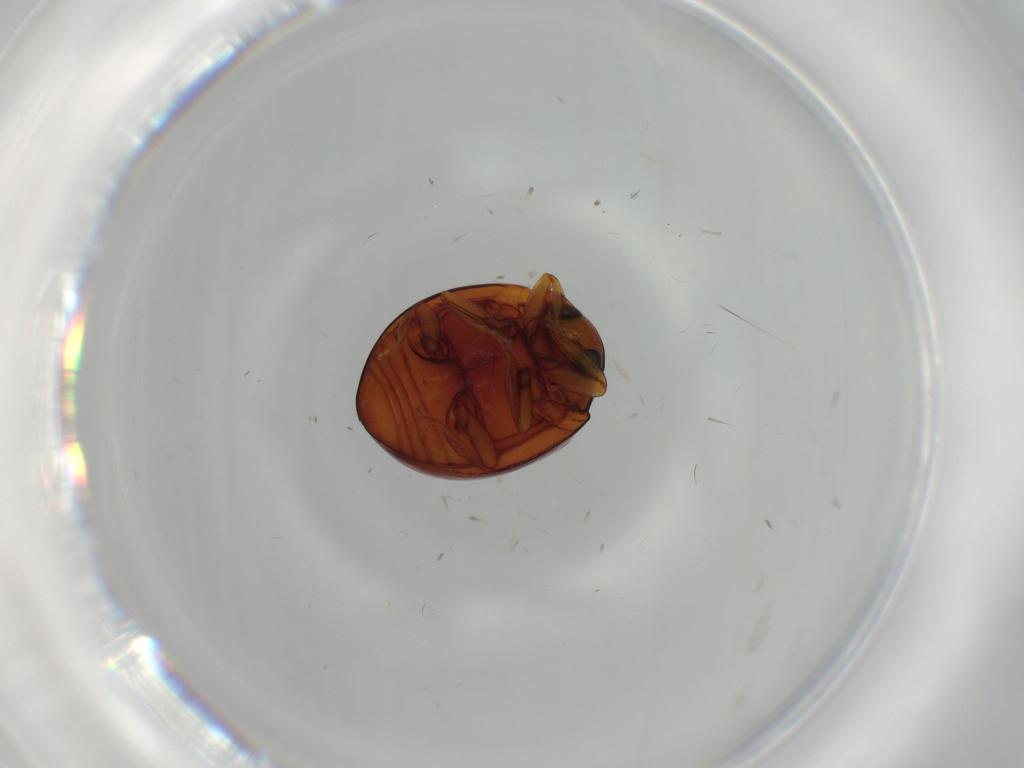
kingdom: Animalia
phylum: Arthropoda
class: Insecta
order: Coleoptera
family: Coccinellidae
